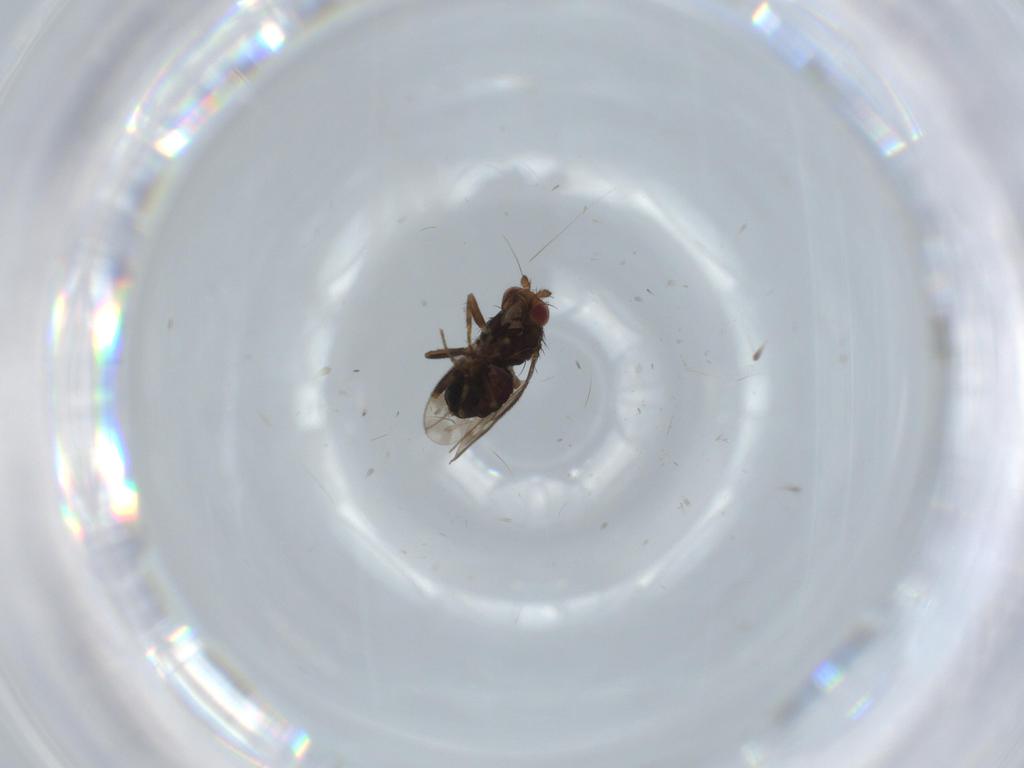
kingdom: Animalia
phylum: Arthropoda
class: Insecta
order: Diptera
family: Sphaeroceridae
